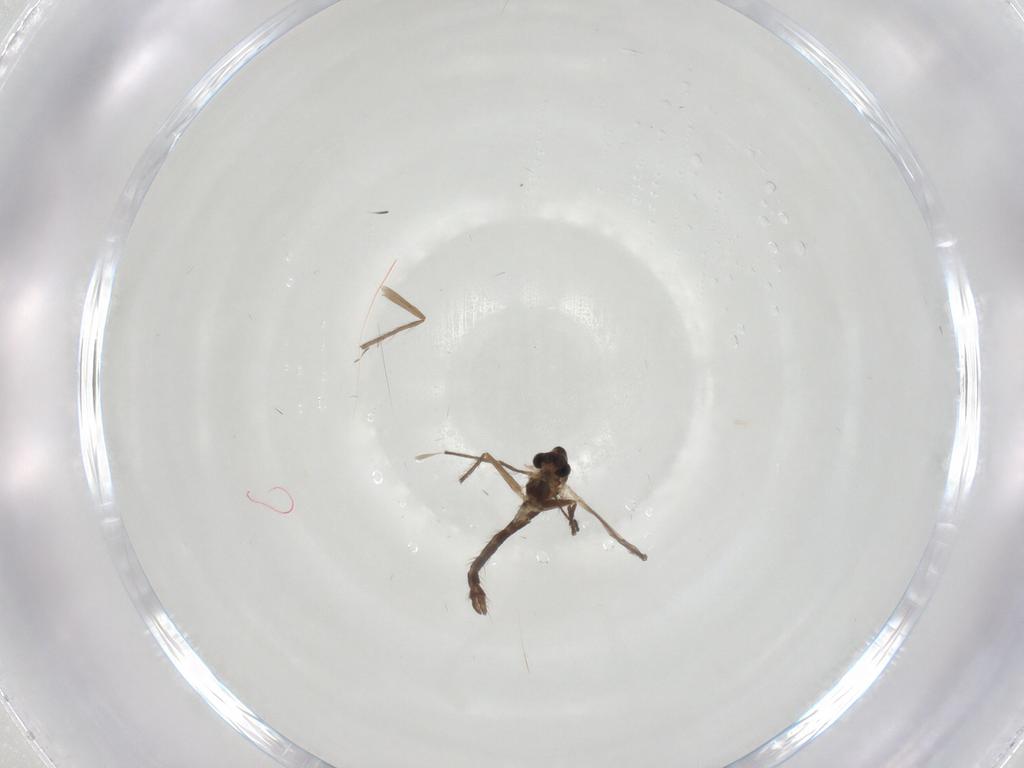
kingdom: Animalia
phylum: Arthropoda
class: Insecta
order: Diptera
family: Chironomidae
